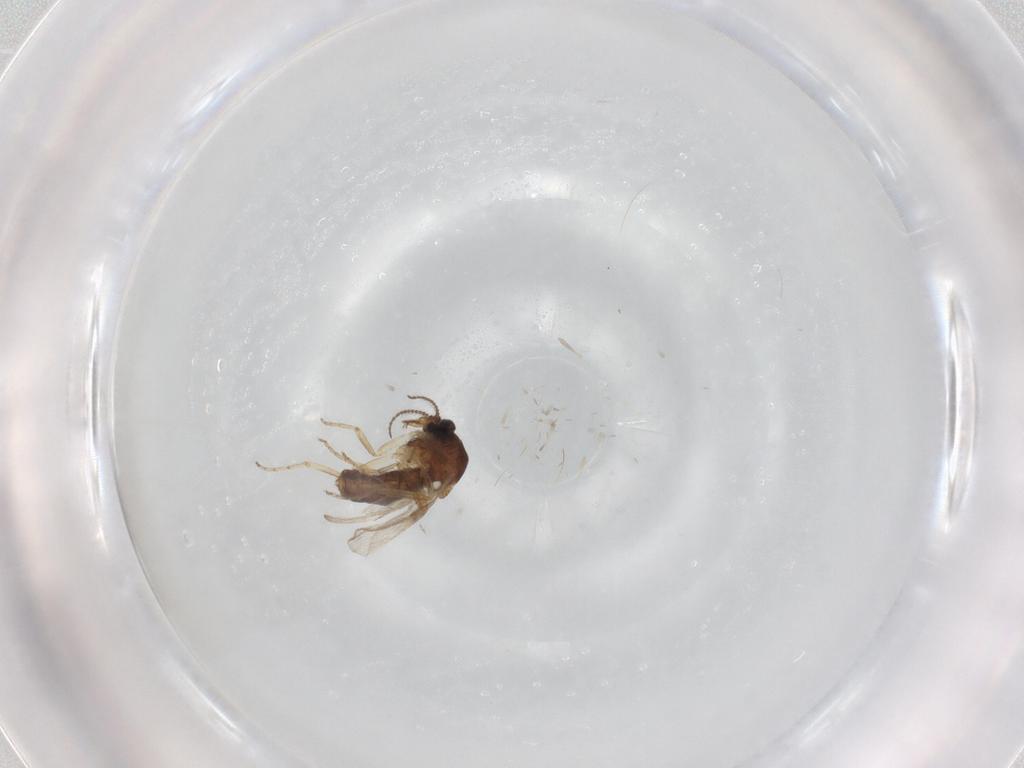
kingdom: Animalia
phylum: Arthropoda
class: Insecta
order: Diptera
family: Ceratopogonidae
